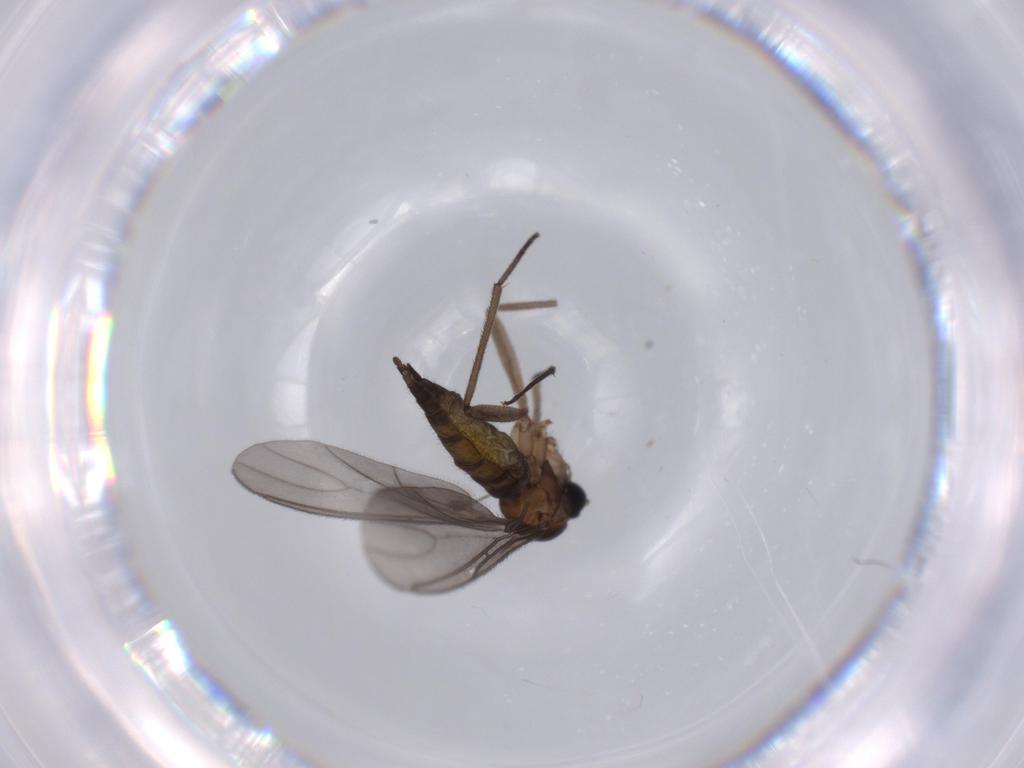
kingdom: Animalia
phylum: Arthropoda
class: Insecta
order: Diptera
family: Sciaridae
